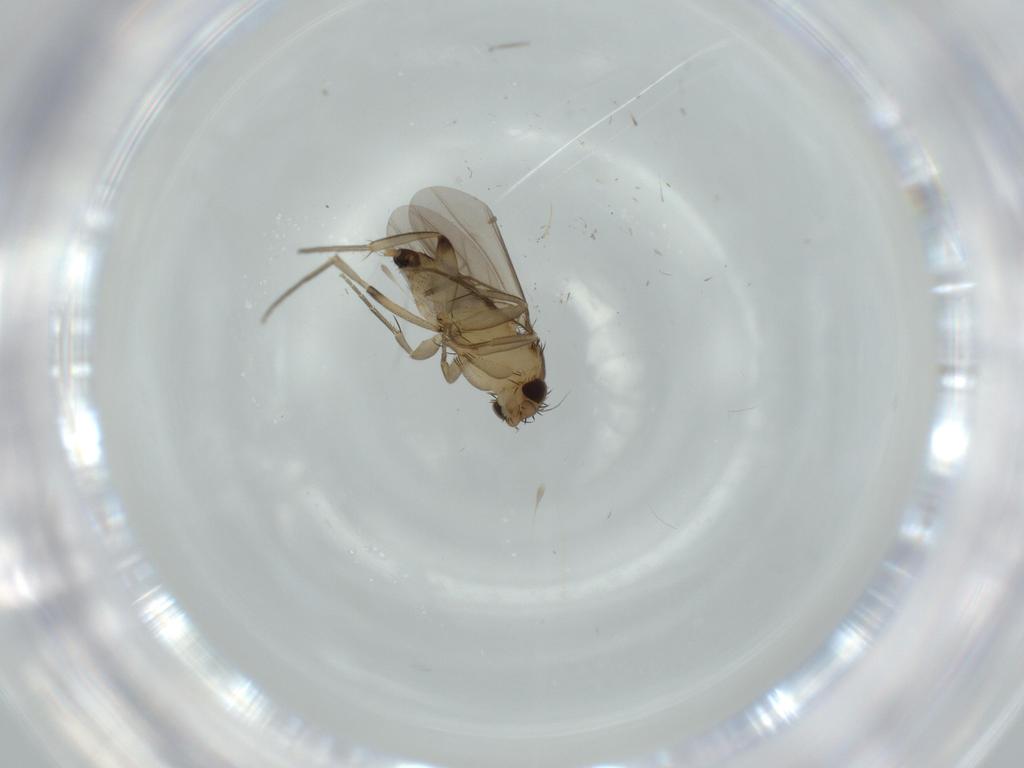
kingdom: Animalia
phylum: Arthropoda
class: Insecta
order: Diptera
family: Phoridae
